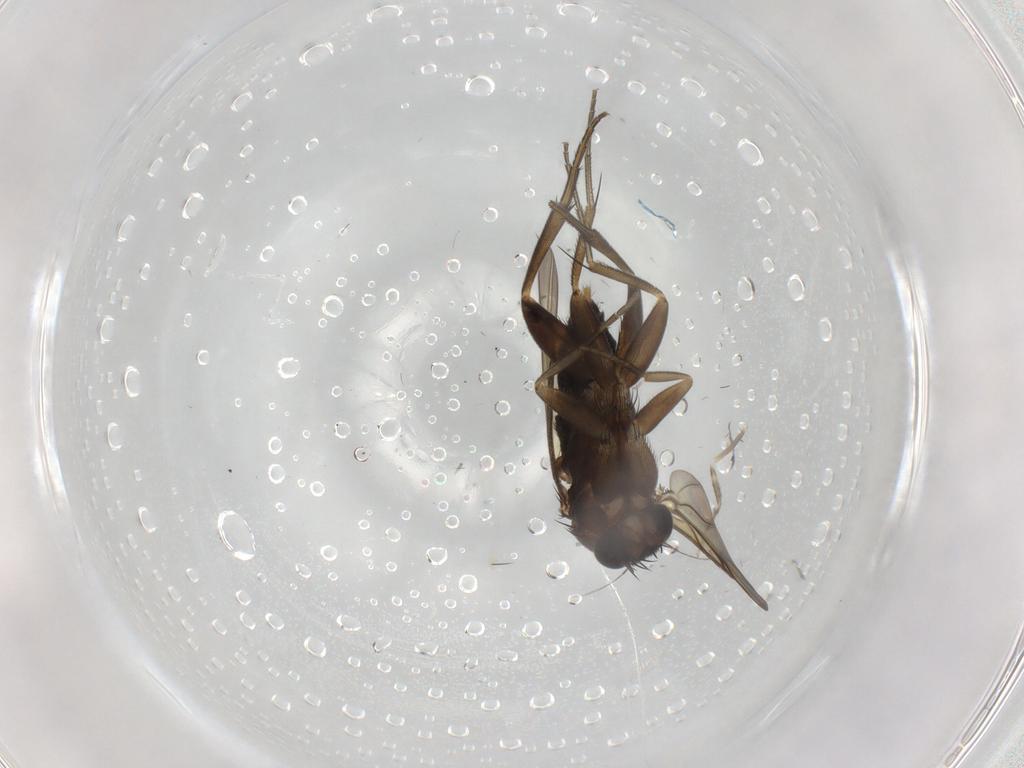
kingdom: Animalia
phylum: Arthropoda
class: Insecta
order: Diptera
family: Phoridae
